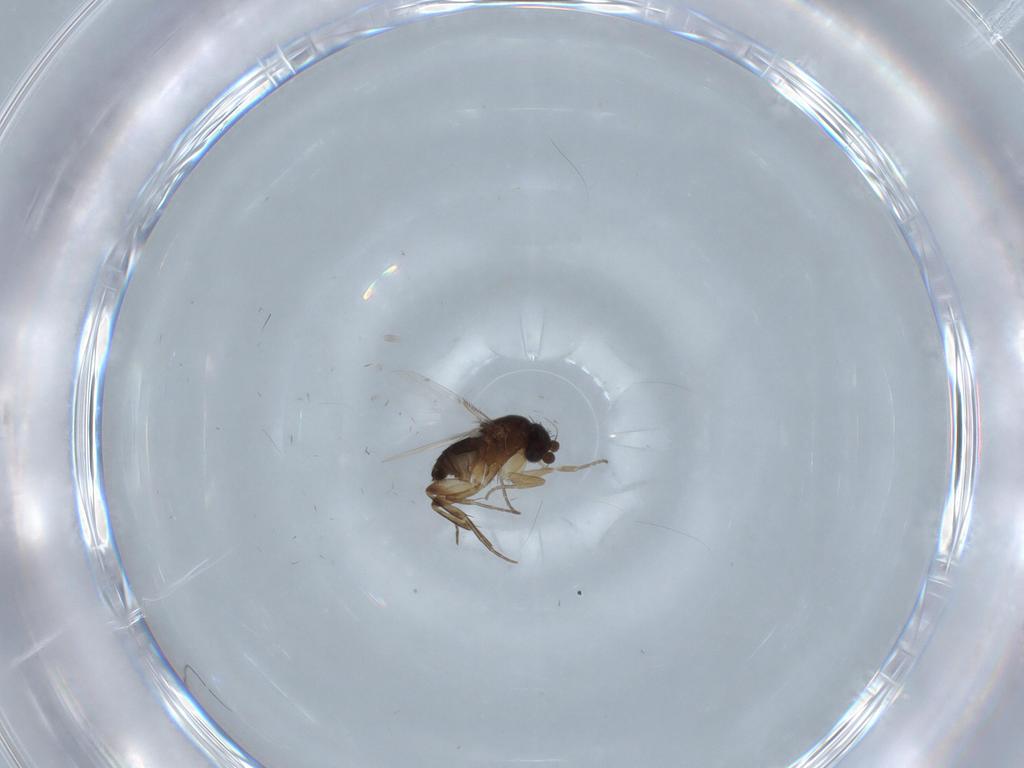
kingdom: Animalia
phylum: Arthropoda
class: Insecta
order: Diptera
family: Phoridae
